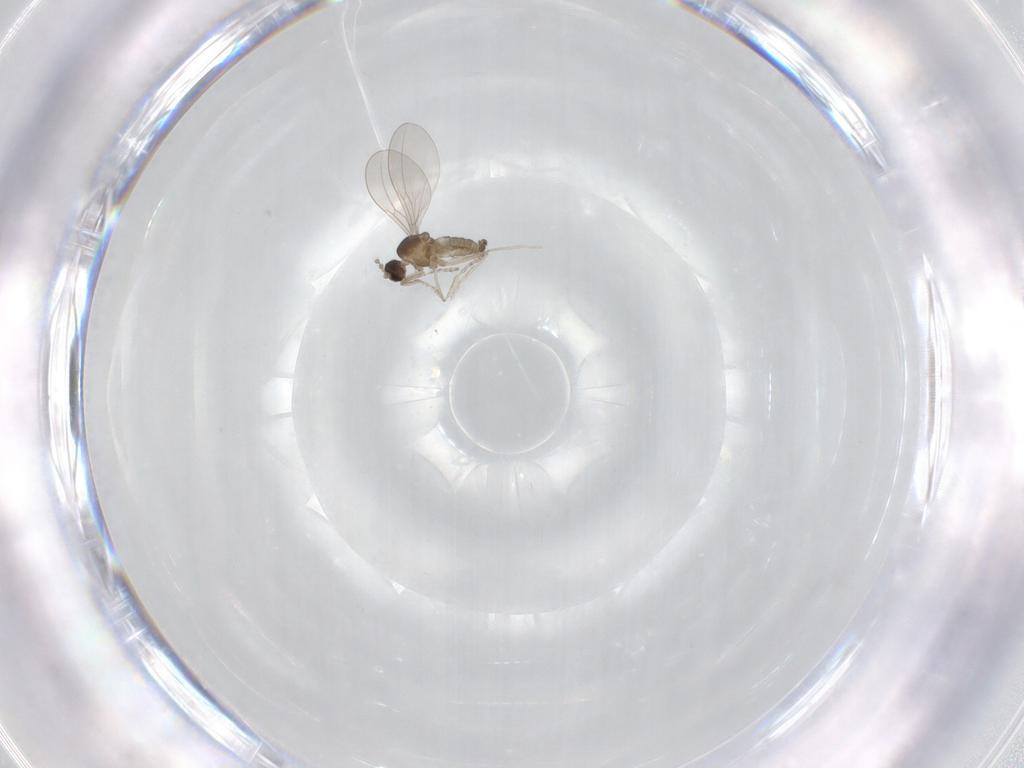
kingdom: Animalia
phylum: Arthropoda
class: Insecta
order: Diptera
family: Cecidomyiidae
